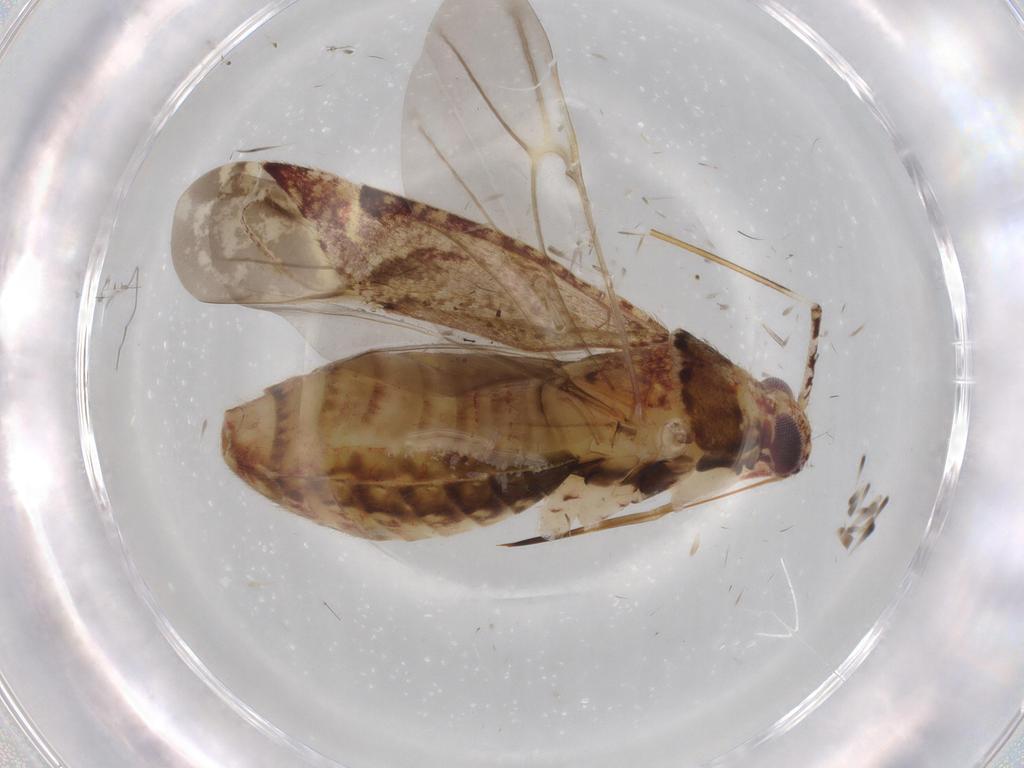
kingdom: Animalia
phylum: Arthropoda
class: Insecta
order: Hemiptera
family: Miridae
